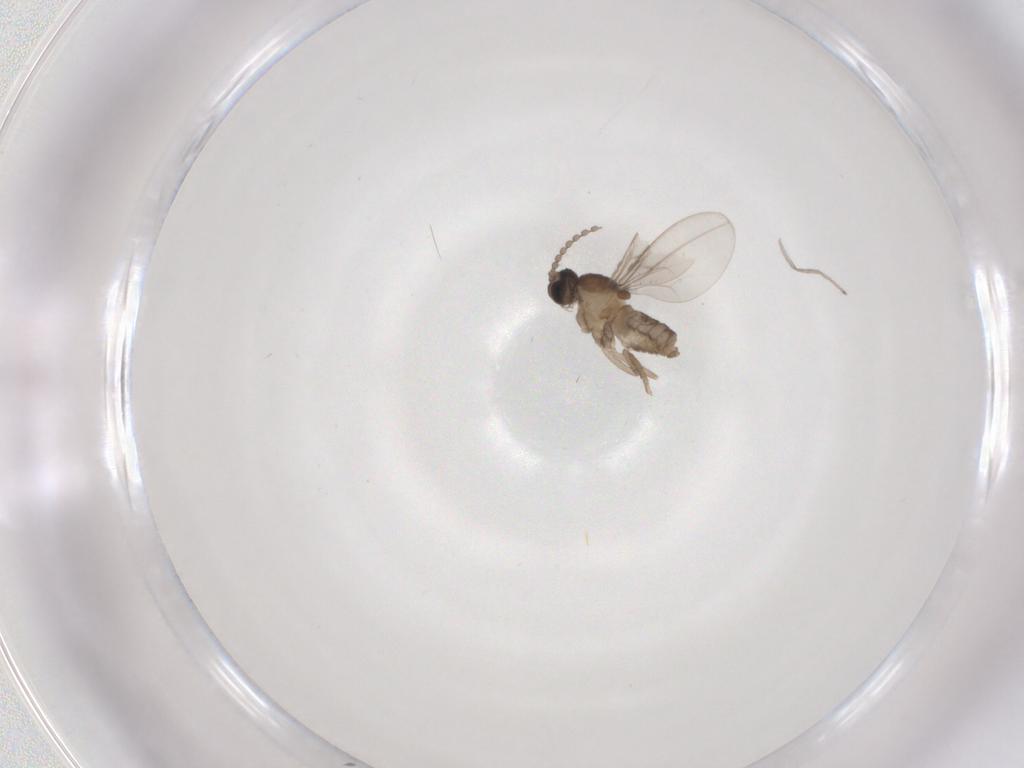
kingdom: Animalia
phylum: Arthropoda
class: Insecta
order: Diptera
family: Cecidomyiidae
